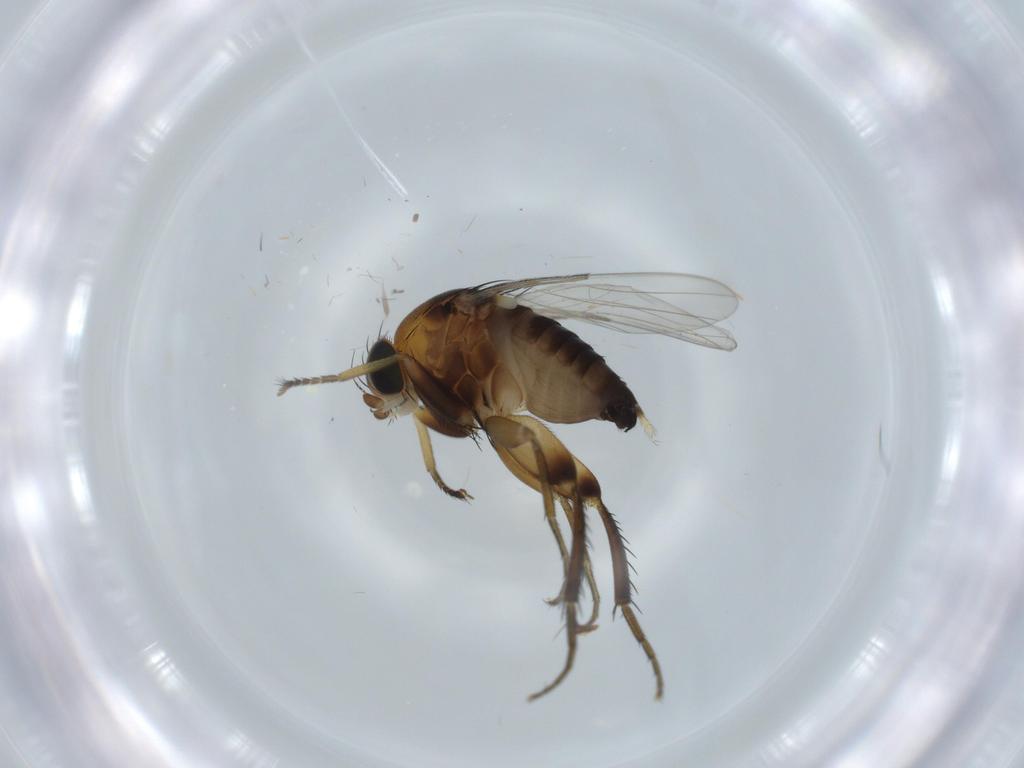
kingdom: Animalia
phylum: Arthropoda
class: Insecta
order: Diptera
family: Phoridae
